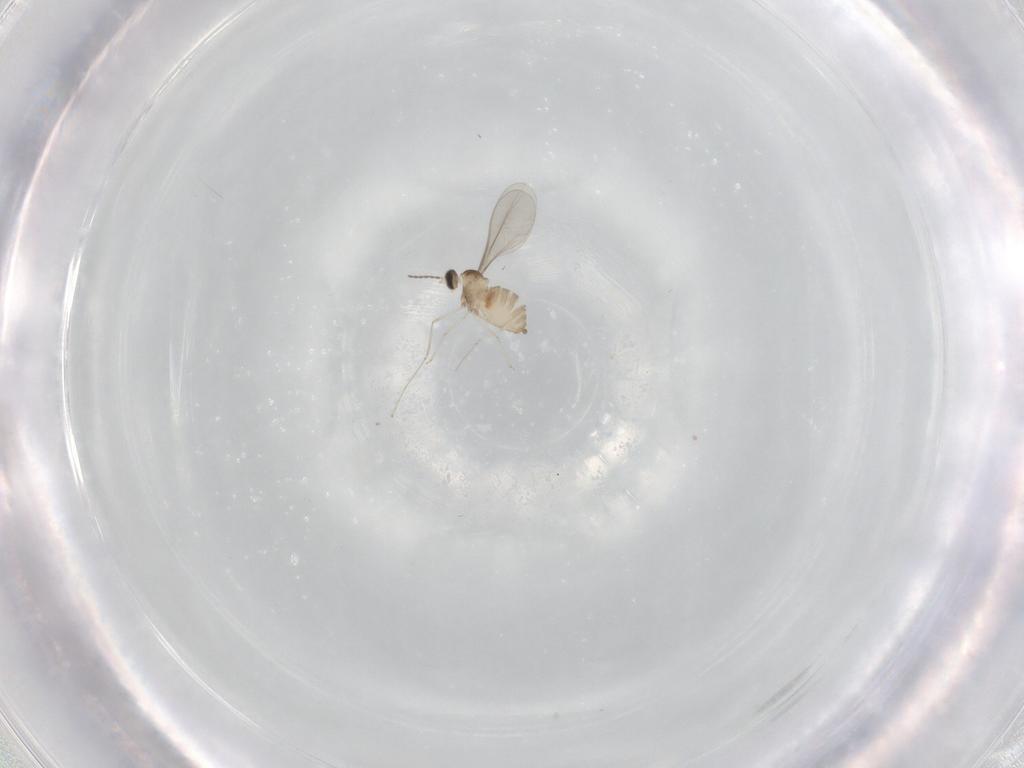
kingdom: Animalia
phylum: Arthropoda
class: Insecta
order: Diptera
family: Cecidomyiidae
